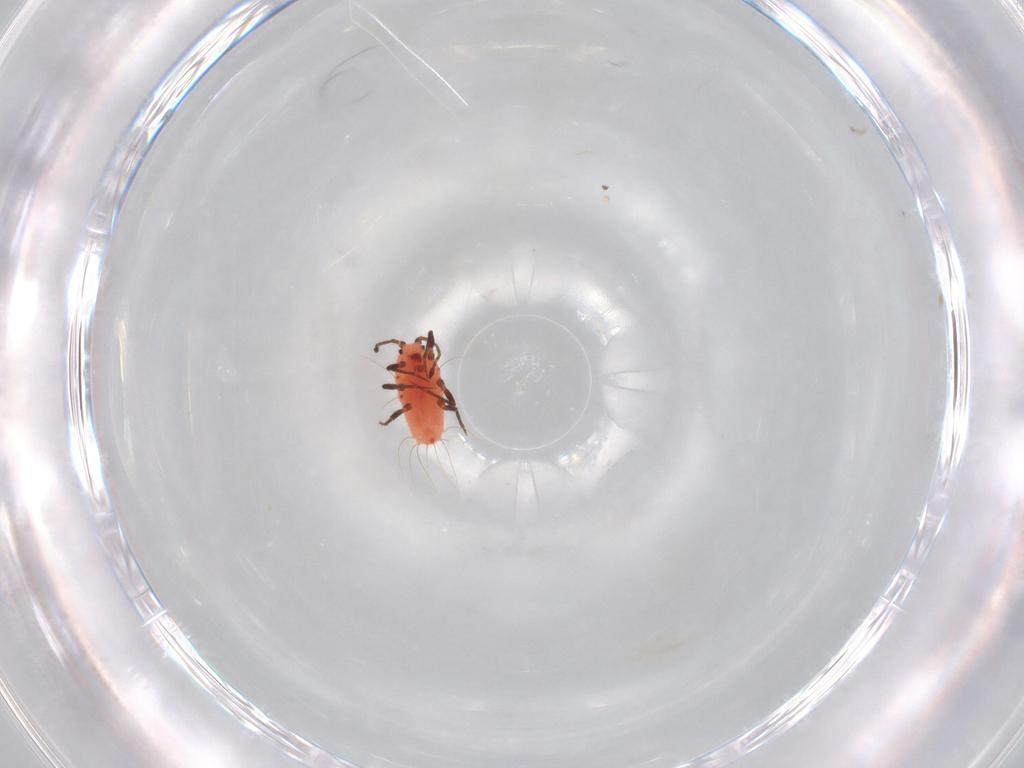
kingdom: Animalia
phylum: Arthropoda
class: Insecta
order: Hemiptera
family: Coccoidea_incertae_sedis
